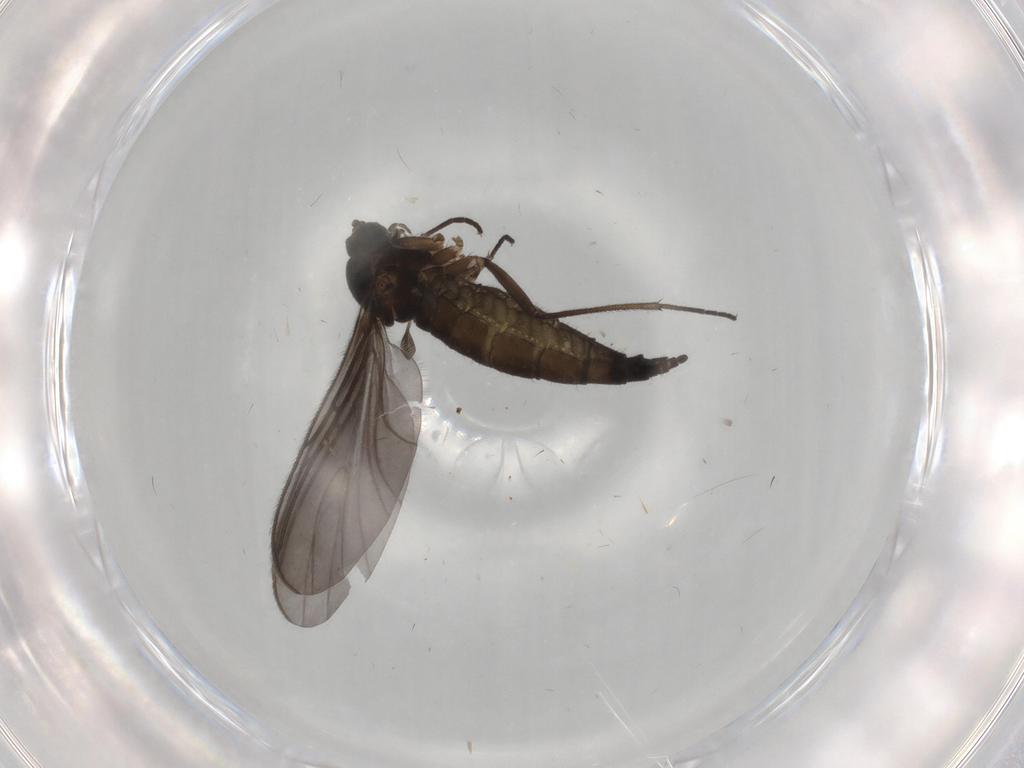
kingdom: Animalia
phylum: Arthropoda
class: Insecta
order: Diptera
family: Sciaridae
